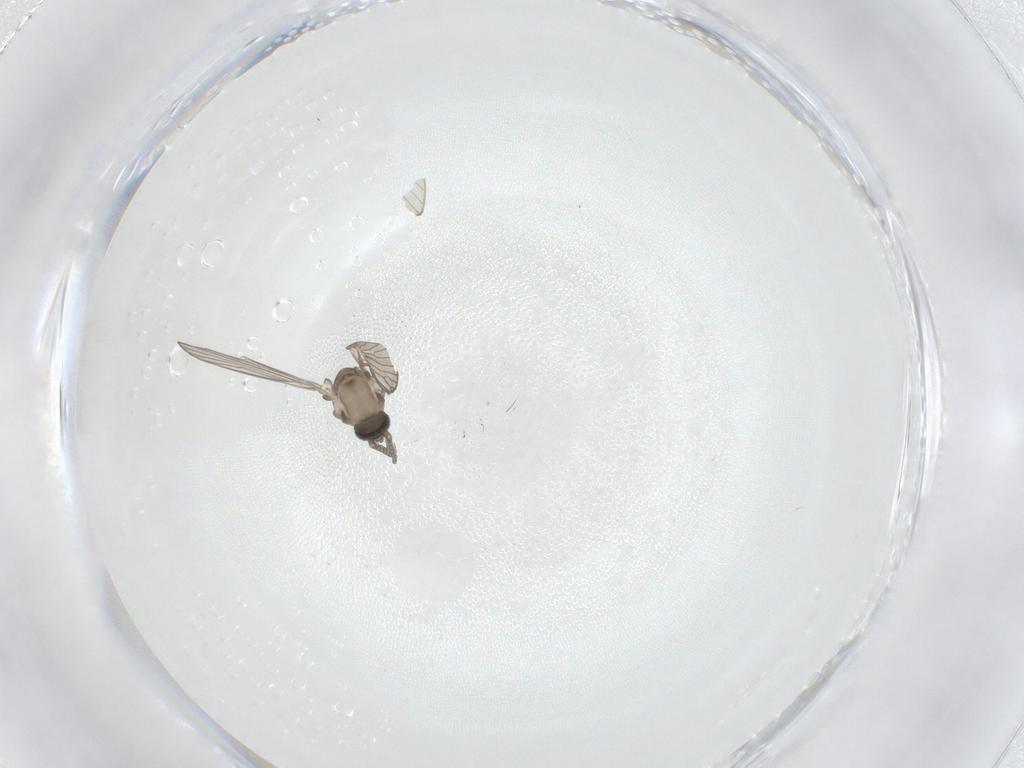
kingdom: Animalia
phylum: Arthropoda
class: Insecta
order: Diptera
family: Psychodidae
